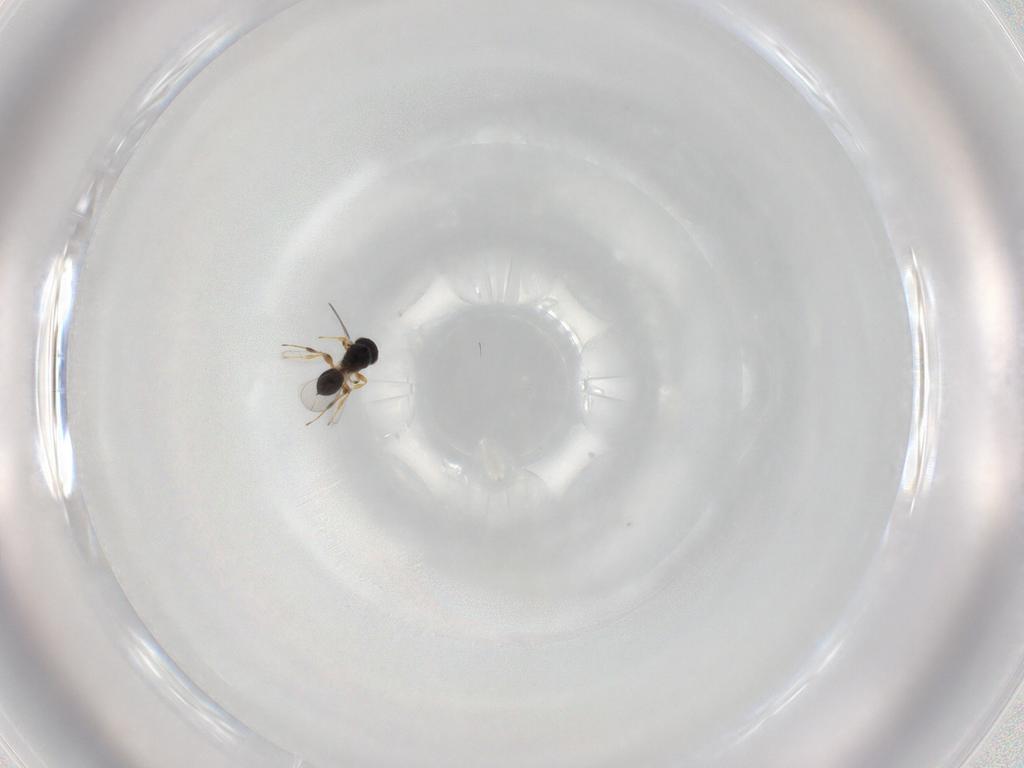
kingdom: Animalia
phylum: Arthropoda
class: Insecta
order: Hymenoptera
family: Platygastridae
